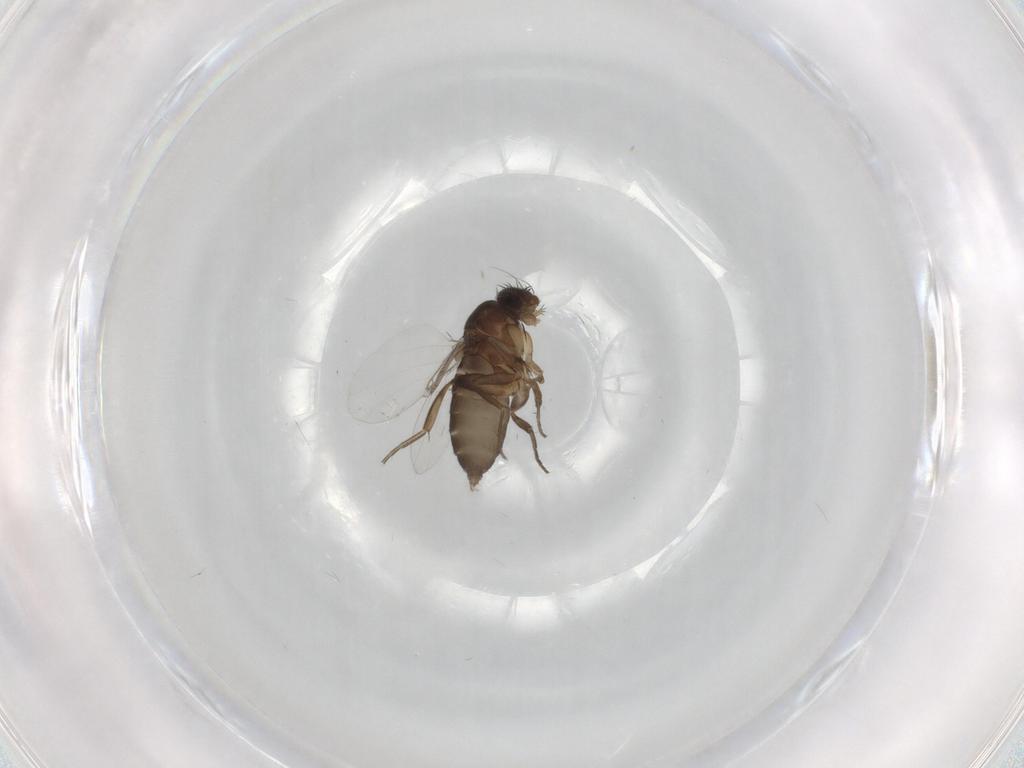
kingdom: Animalia
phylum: Arthropoda
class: Insecta
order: Diptera
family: Phoridae
